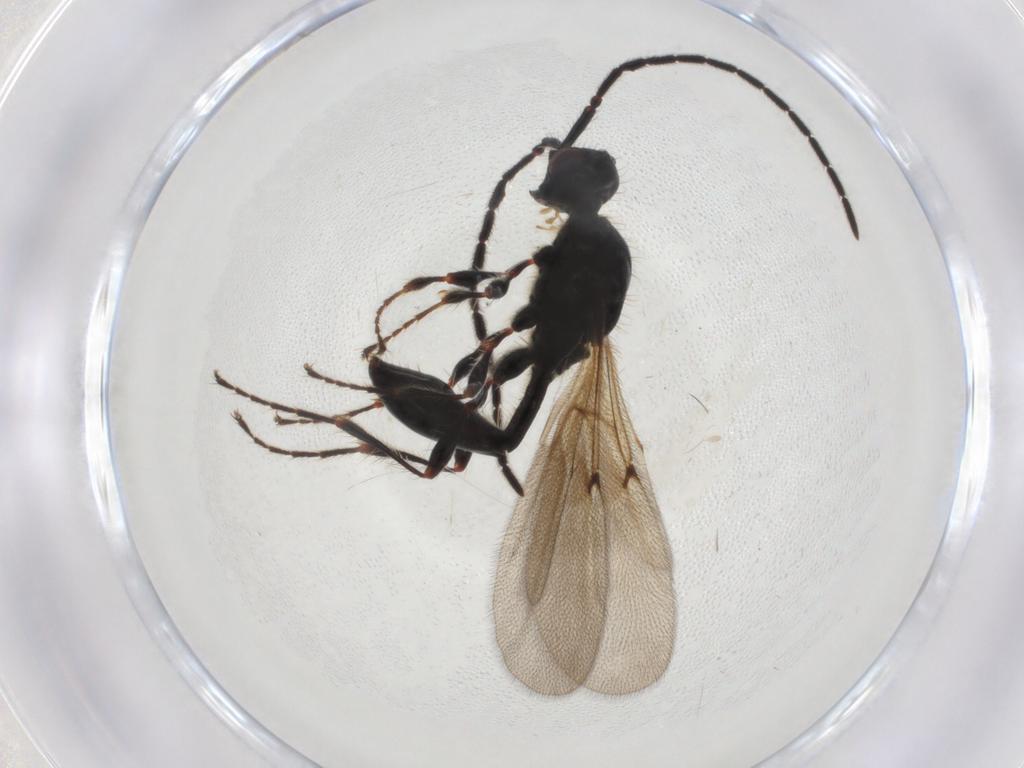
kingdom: Animalia
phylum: Arthropoda
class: Insecta
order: Hymenoptera
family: Diapriidae
